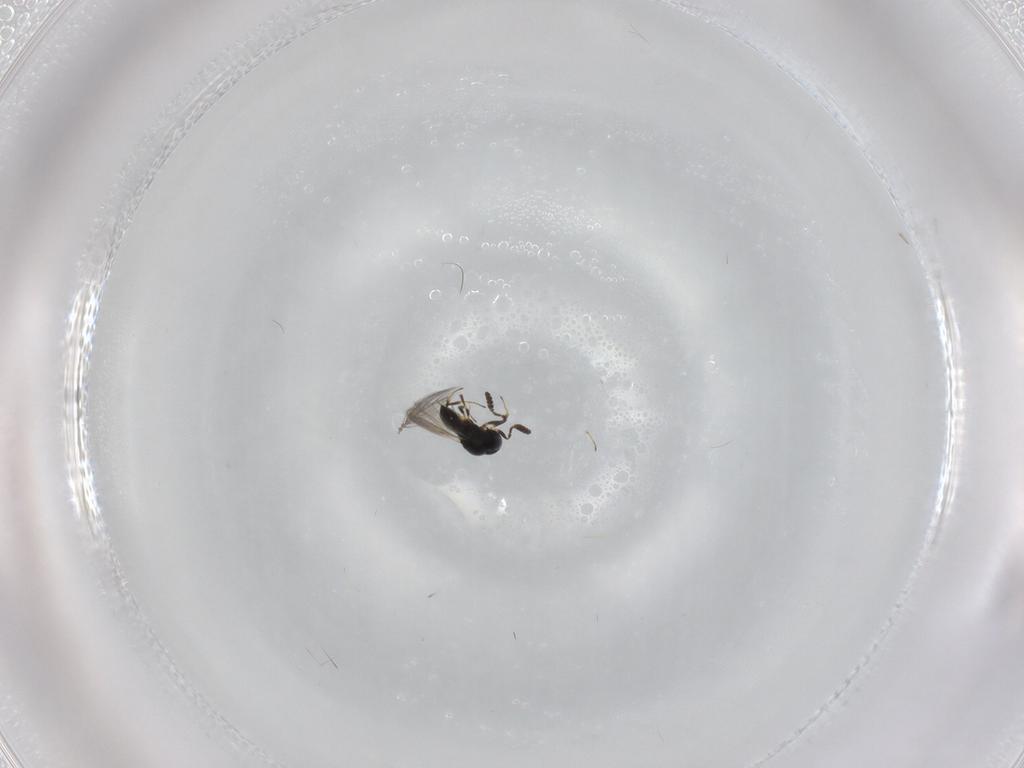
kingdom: Animalia
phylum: Arthropoda
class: Insecta
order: Hymenoptera
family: Scelionidae
